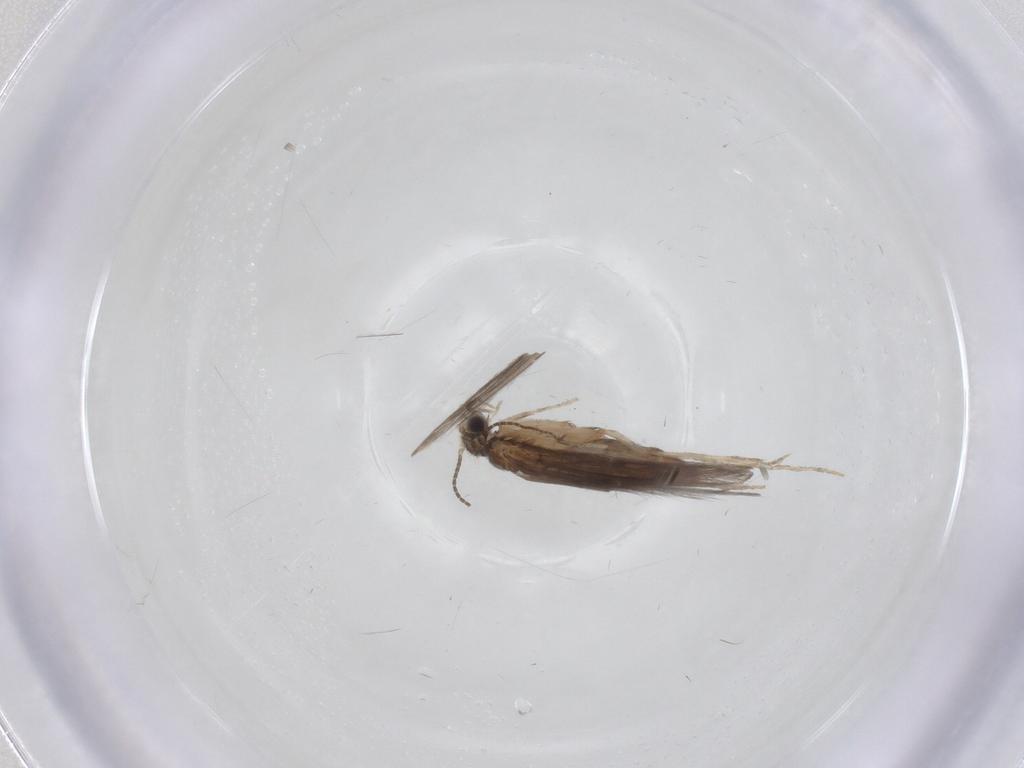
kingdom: Animalia
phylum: Arthropoda
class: Insecta
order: Trichoptera
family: Hydroptilidae
